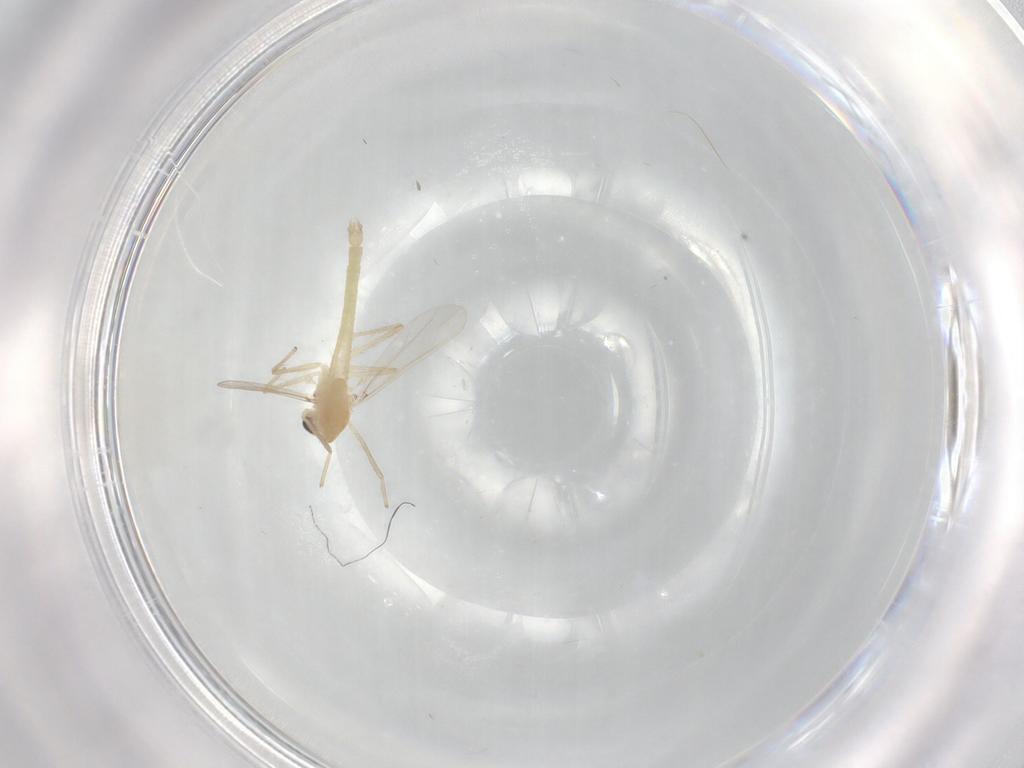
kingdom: Animalia
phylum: Arthropoda
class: Insecta
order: Diptera
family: Chironomidae
